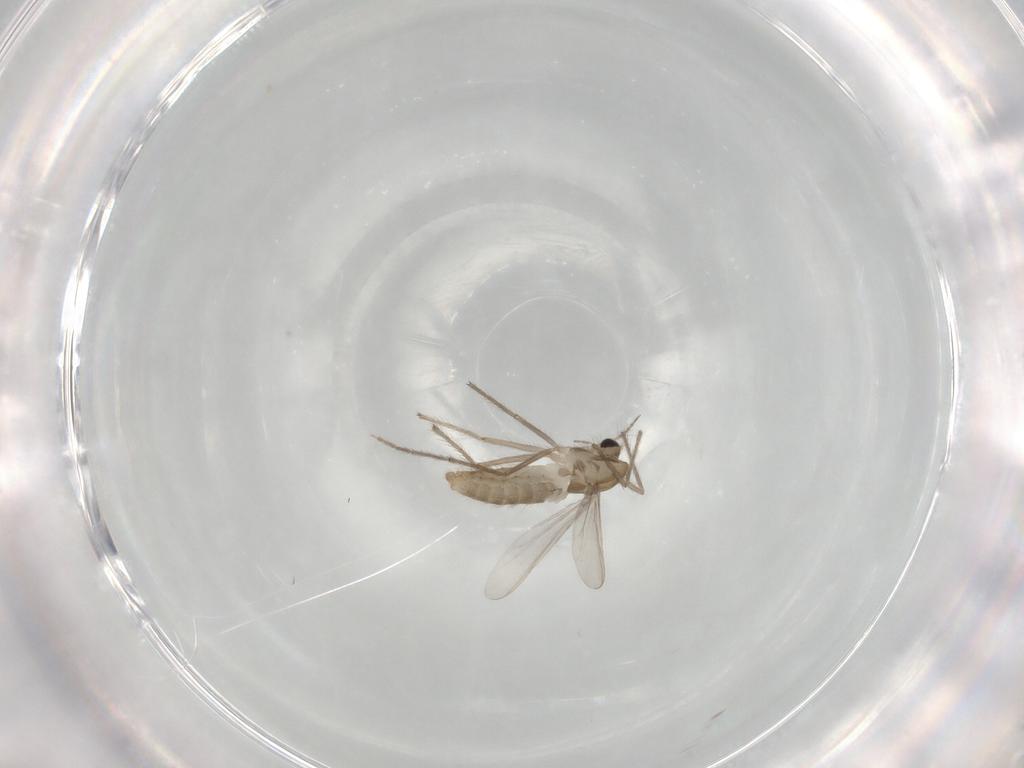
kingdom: Animalia
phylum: Arthropoda
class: Insecta
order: Diptera
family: Chironomidae
